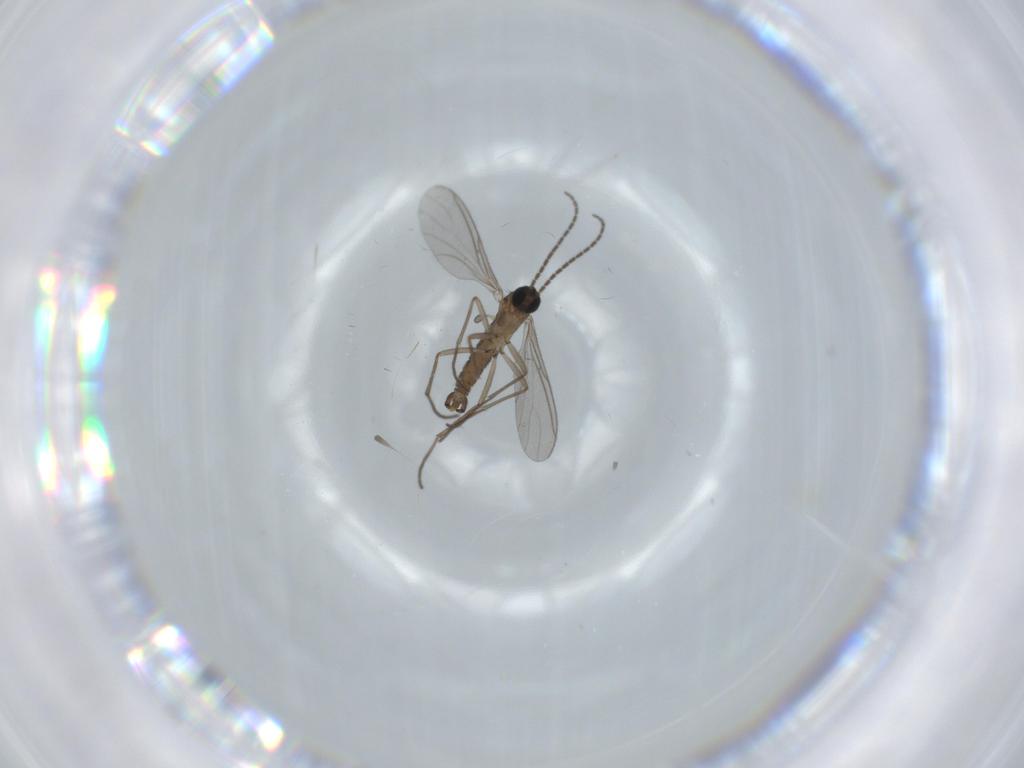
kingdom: Animalia
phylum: Arthropoda
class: Insecta
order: Diptera
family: Sciaridae
